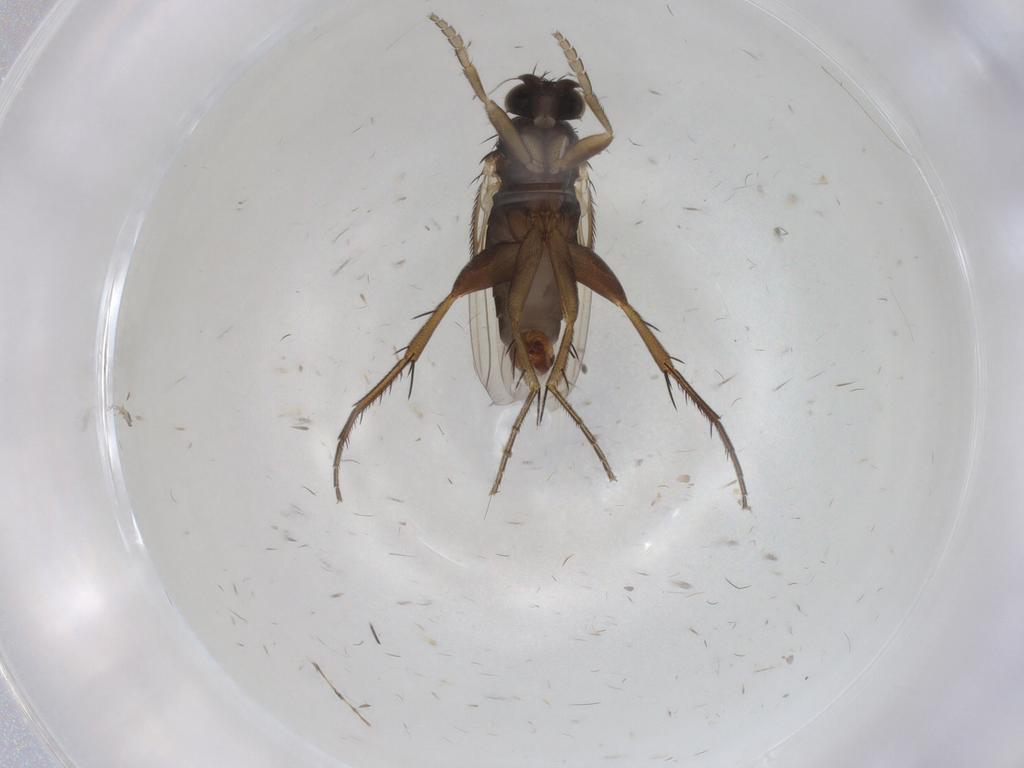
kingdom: Animalia
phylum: Arthropoda
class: Insecta
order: Diptera
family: Phoridae
